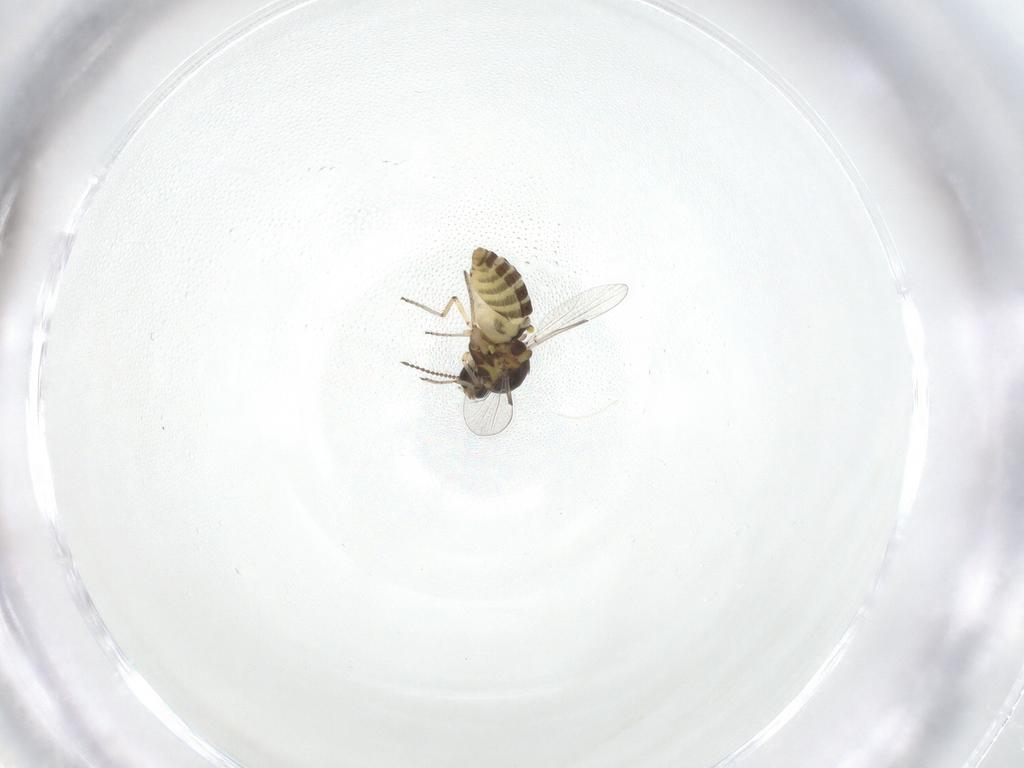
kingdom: Animalia
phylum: Arthropoda
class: Insecta
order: Diptera
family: Ceratopogonidae
